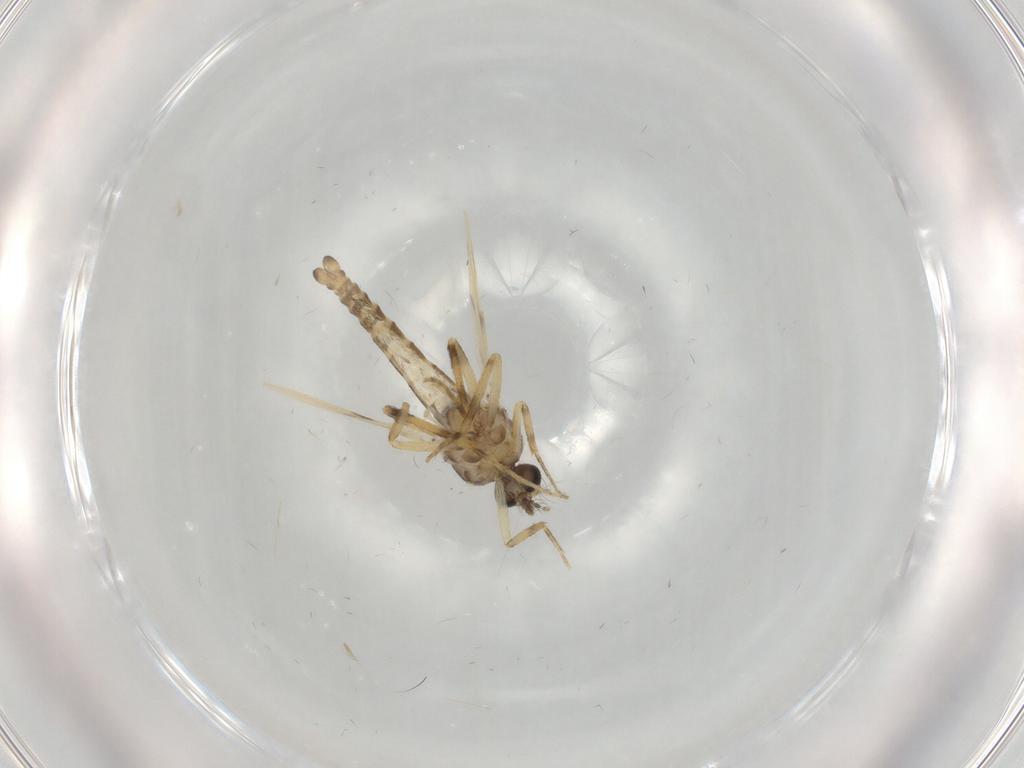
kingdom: Animalia
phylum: Arthropoda
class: Insecta
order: Diptera
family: Ceratopogonidae
